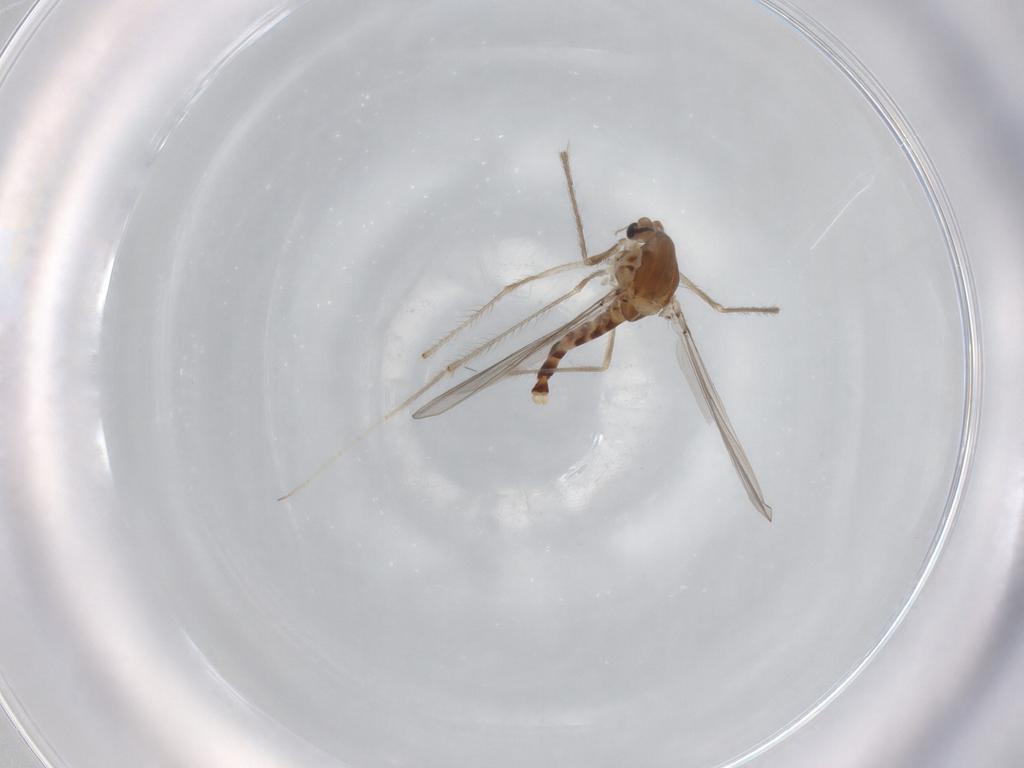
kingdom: Animalia
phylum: Arthropoda
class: Insecta
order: Diptera
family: Chironomidae
